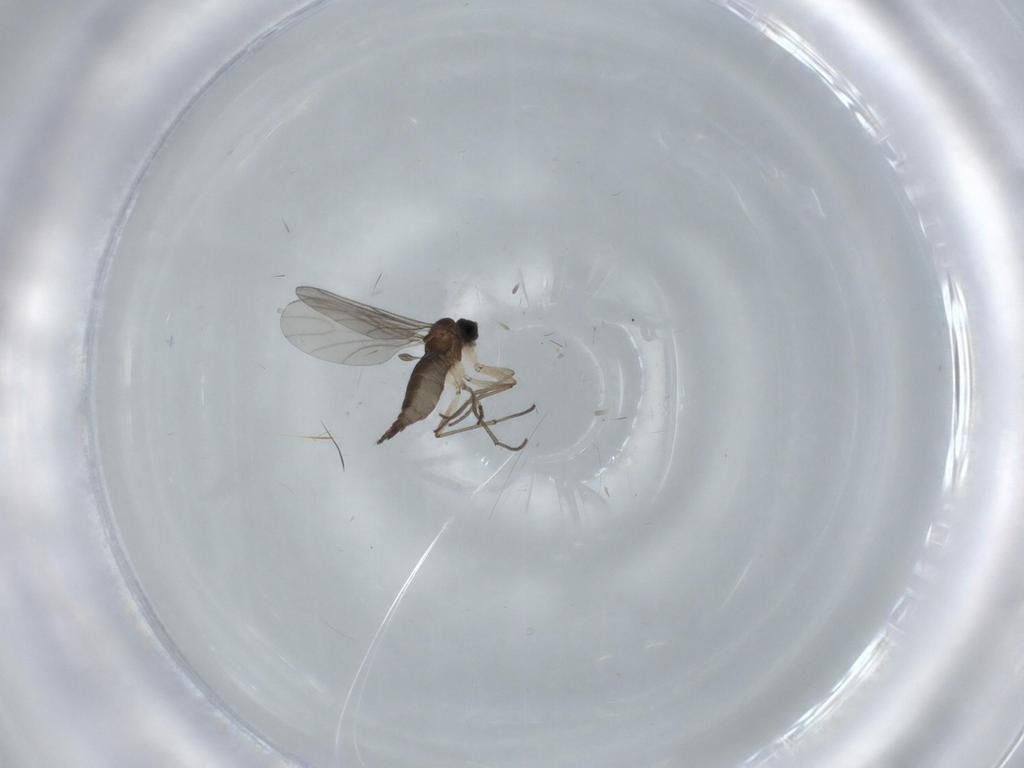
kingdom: Animalia
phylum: Arthropoda
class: Insecta
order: Diptera
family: Sciaridae
